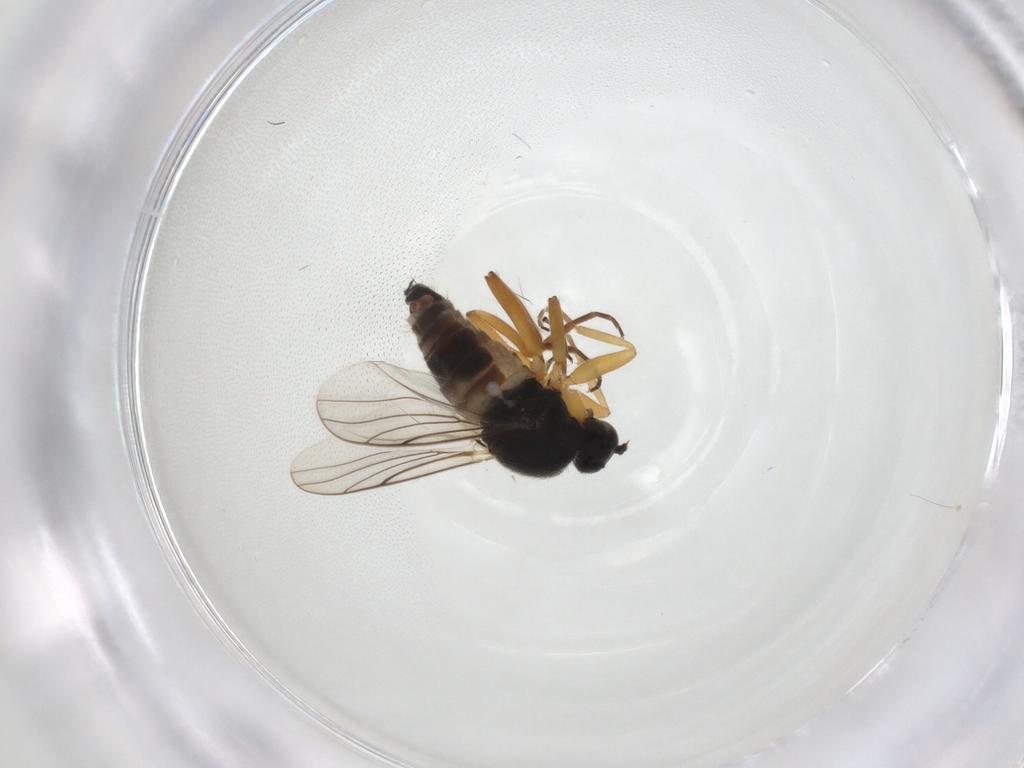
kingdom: Animalia
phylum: Arthropoda
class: Insecta
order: Diptera
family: Hybotidae
